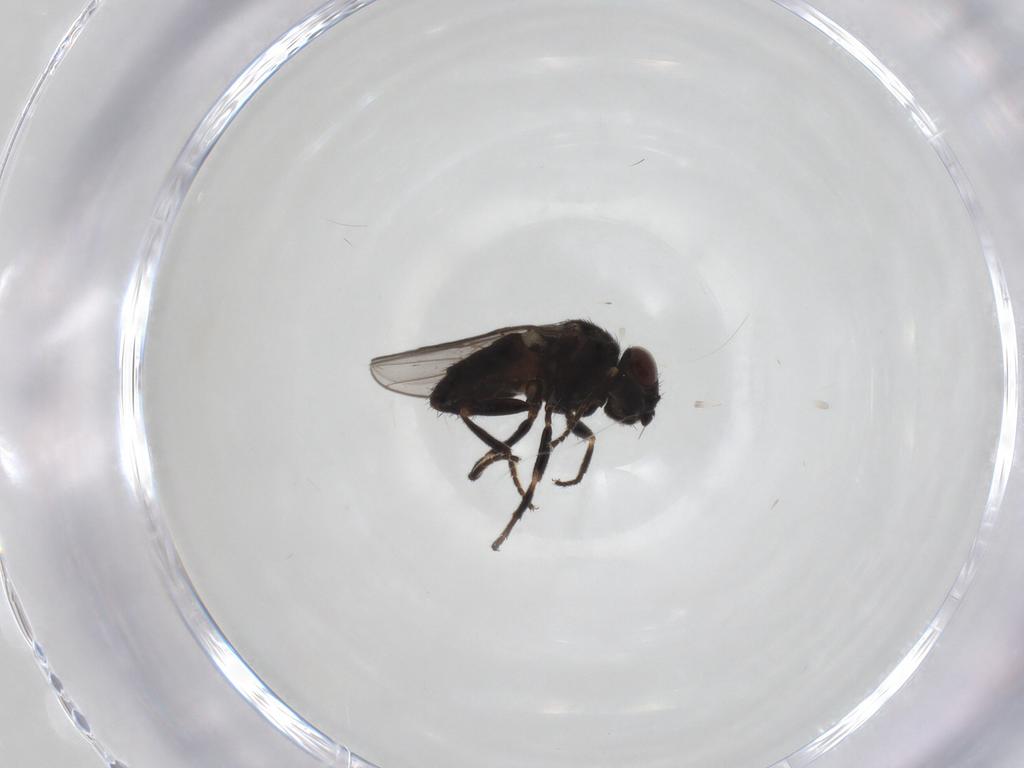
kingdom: Animalia
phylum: Arthropoda
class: Insecta
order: Diptera
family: Chloropidae
